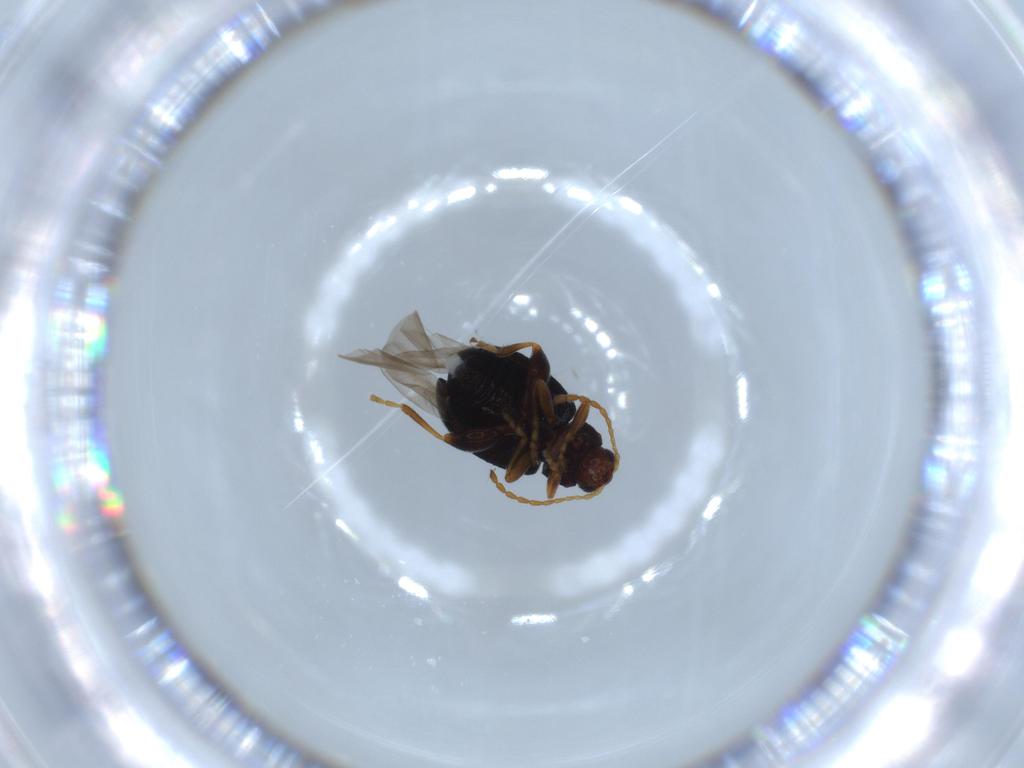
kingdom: Animalia
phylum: Arthropoda
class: Insecta
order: Coleoptera
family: Chrysomelidae
